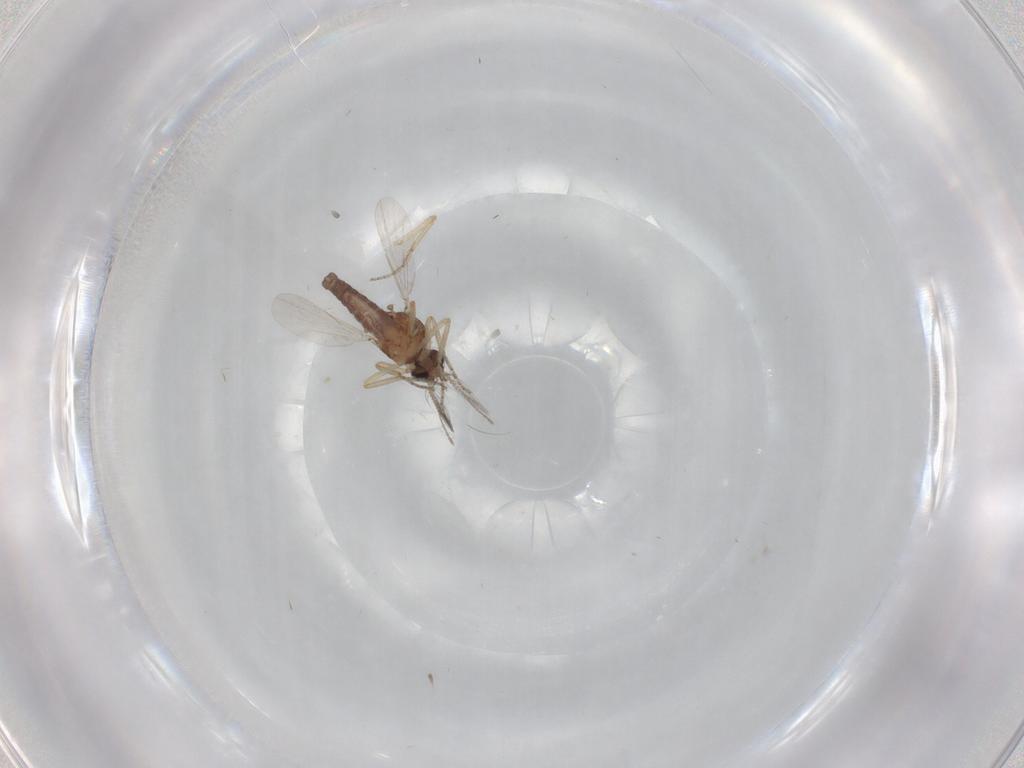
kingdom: Animalia
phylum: Arthropoda
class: Insecta
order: Diptera
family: Ceratopogonidae
